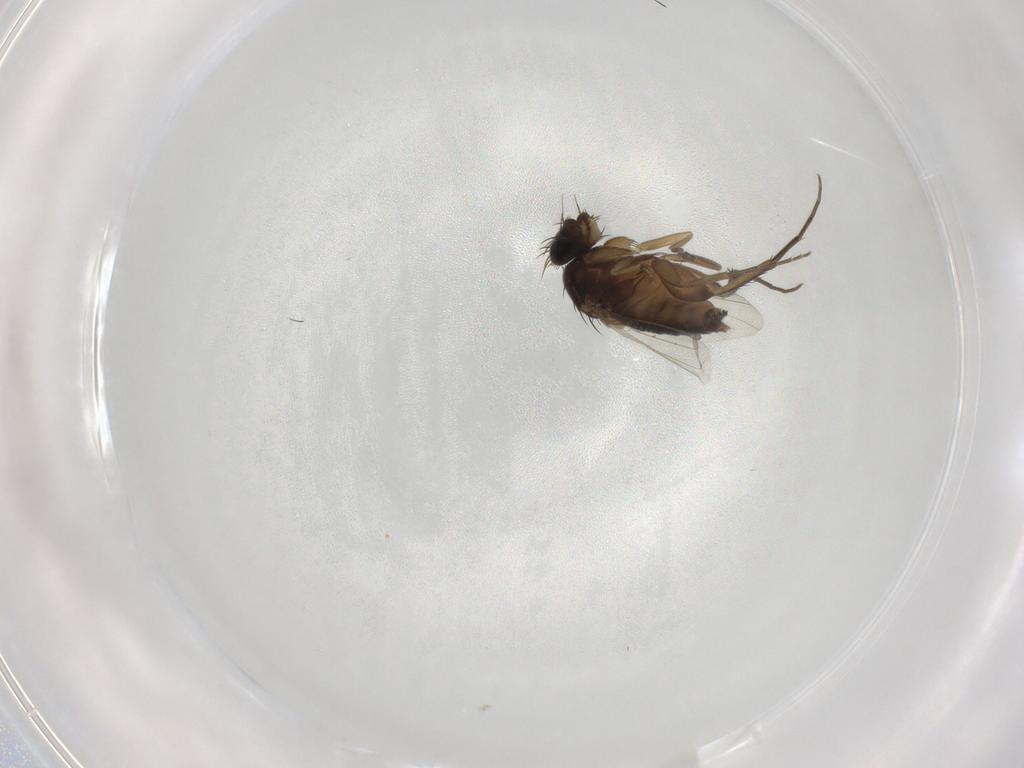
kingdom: Animalia
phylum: Arthropoda
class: Insecta
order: Diptera
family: Phoridae
